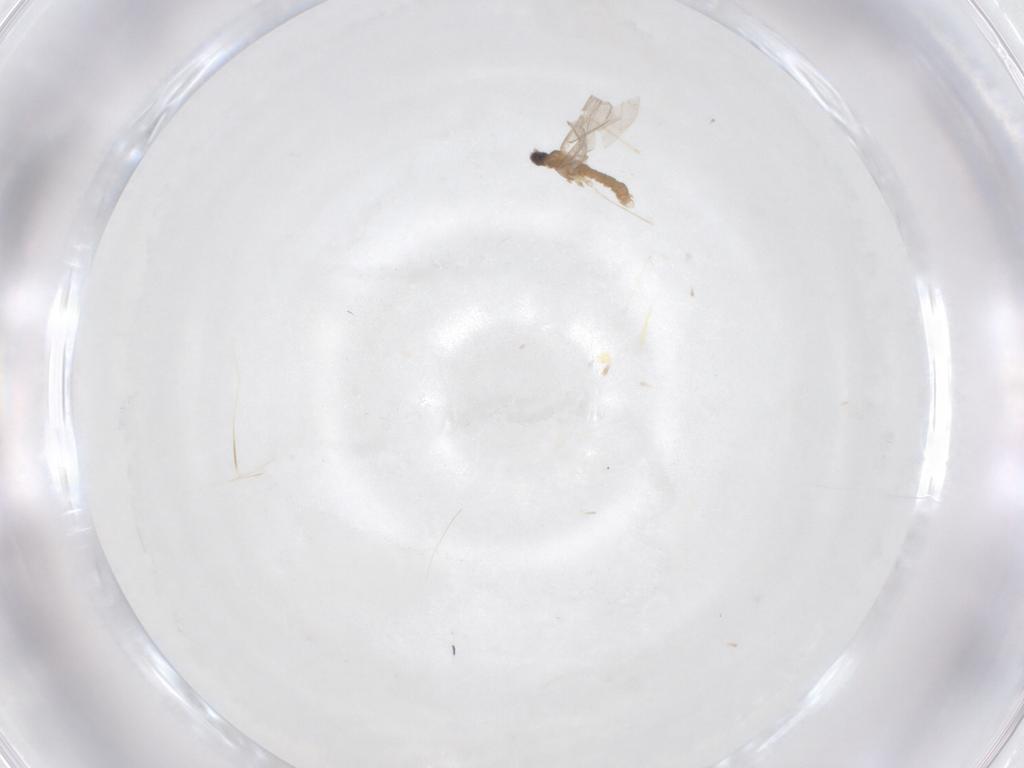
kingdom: Animalia
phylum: Arthropoda
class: Insecta
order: Diptera
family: Cecidomyiidae
